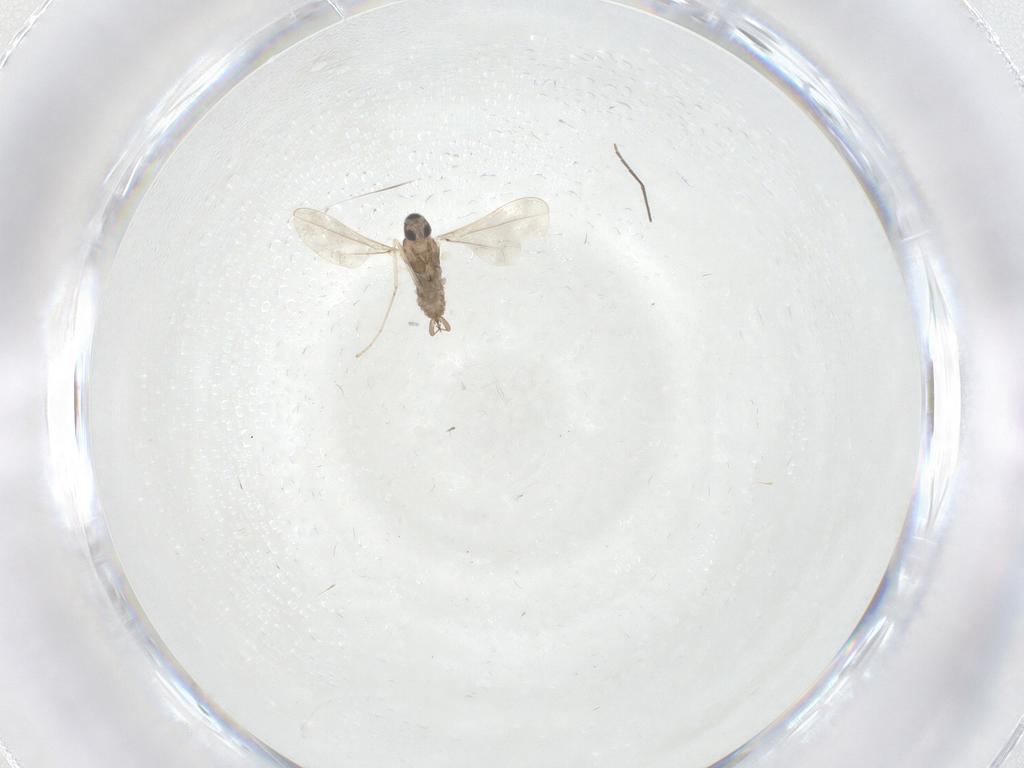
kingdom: Animalia
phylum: Arthropoda
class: Insecta
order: Diptera
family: Chironomidae
